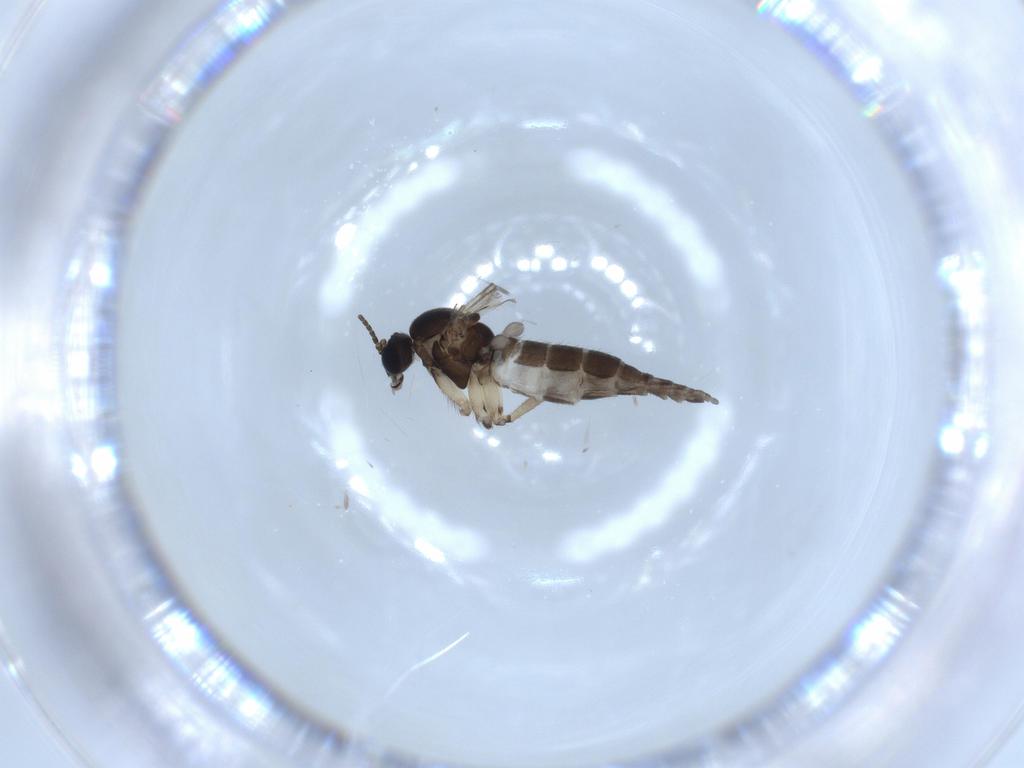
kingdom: Animalia
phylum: Arthropoda
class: Insecta
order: Diptera
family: Sciaridae
